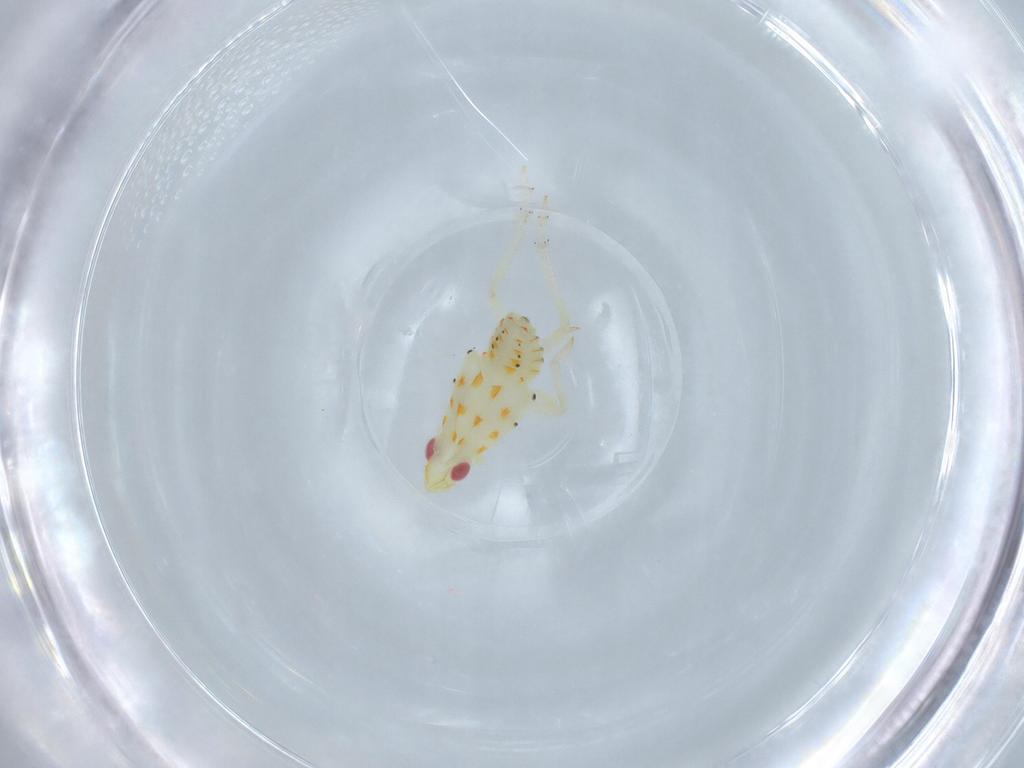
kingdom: Animalia
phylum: Arthropoda
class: Insecta
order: Hemiptera
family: Tropiduchidae
